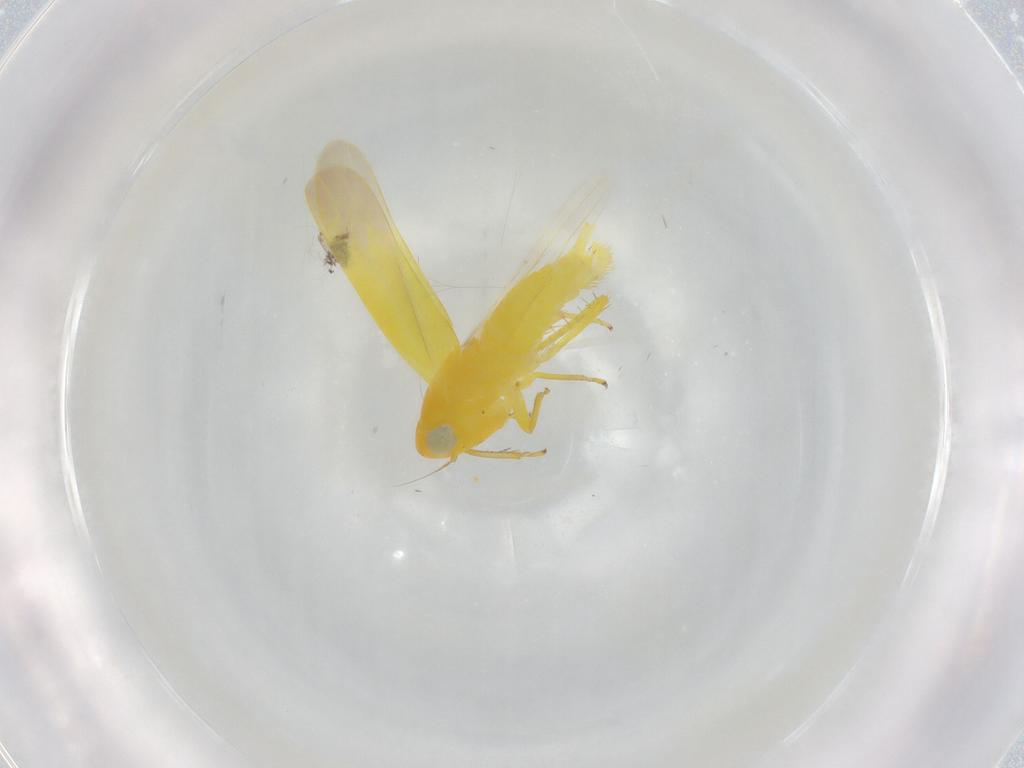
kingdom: Animalia
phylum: Arthropoda
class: Insecta
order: Hemiptera
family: Cicadellidae
